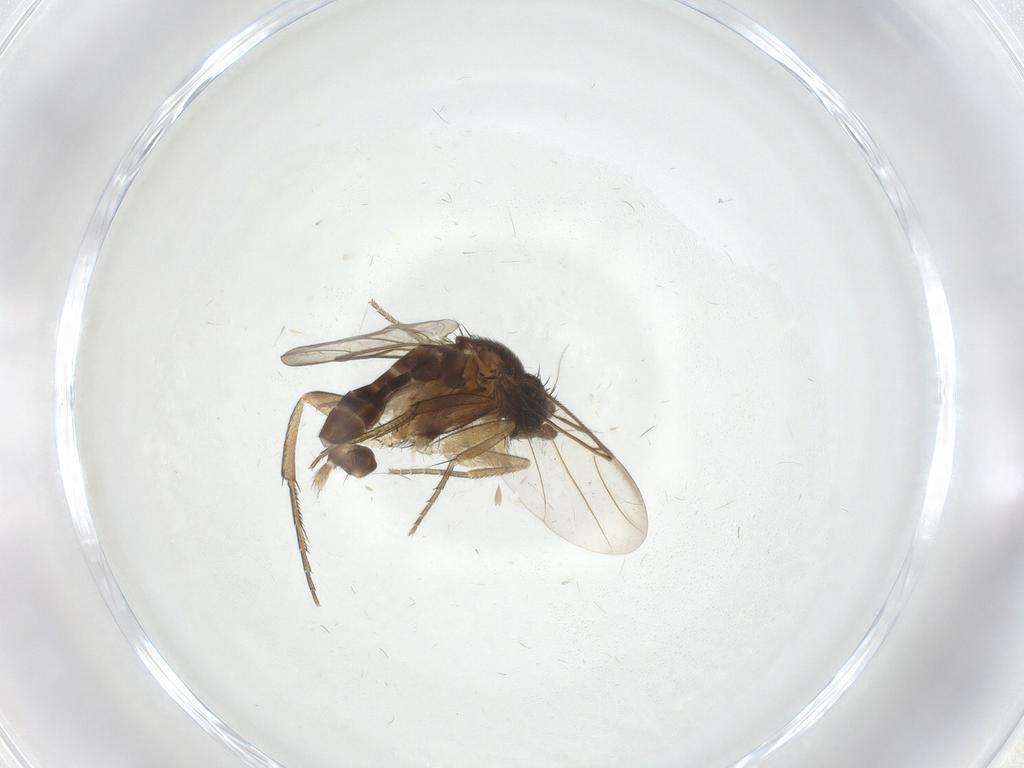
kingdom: Animalia
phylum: Arthropoda
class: Insecta
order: Diptera
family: Phoridae
